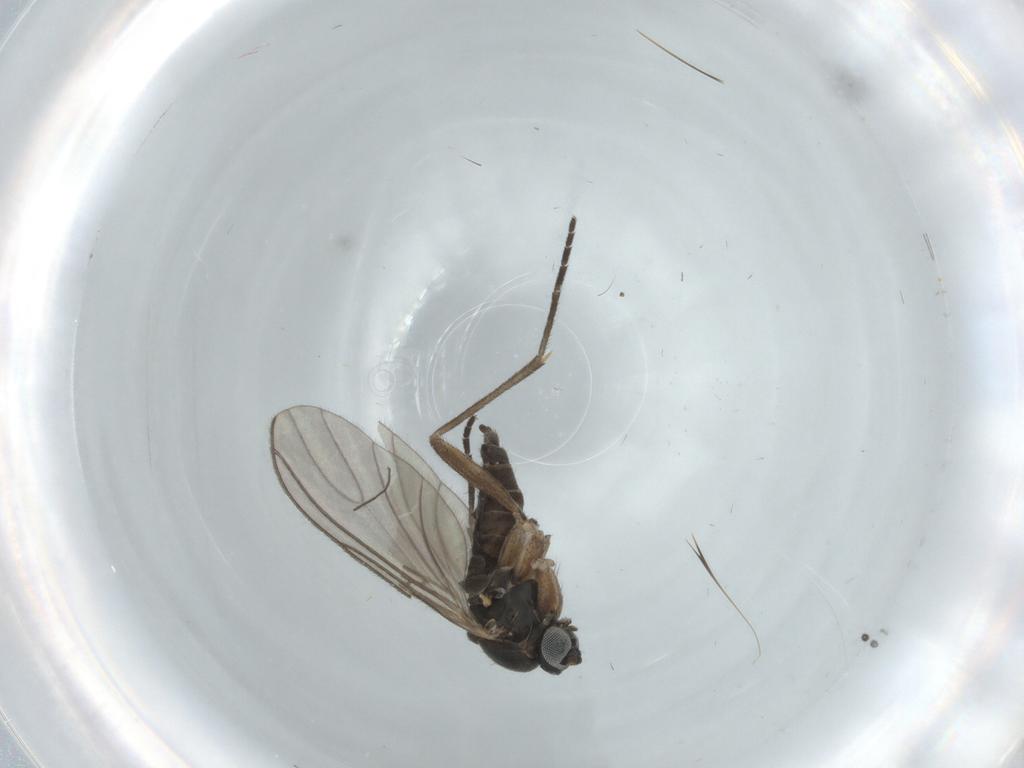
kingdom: Animalia
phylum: Arthropoda
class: Insecta
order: Diptera
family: Sciaridae
